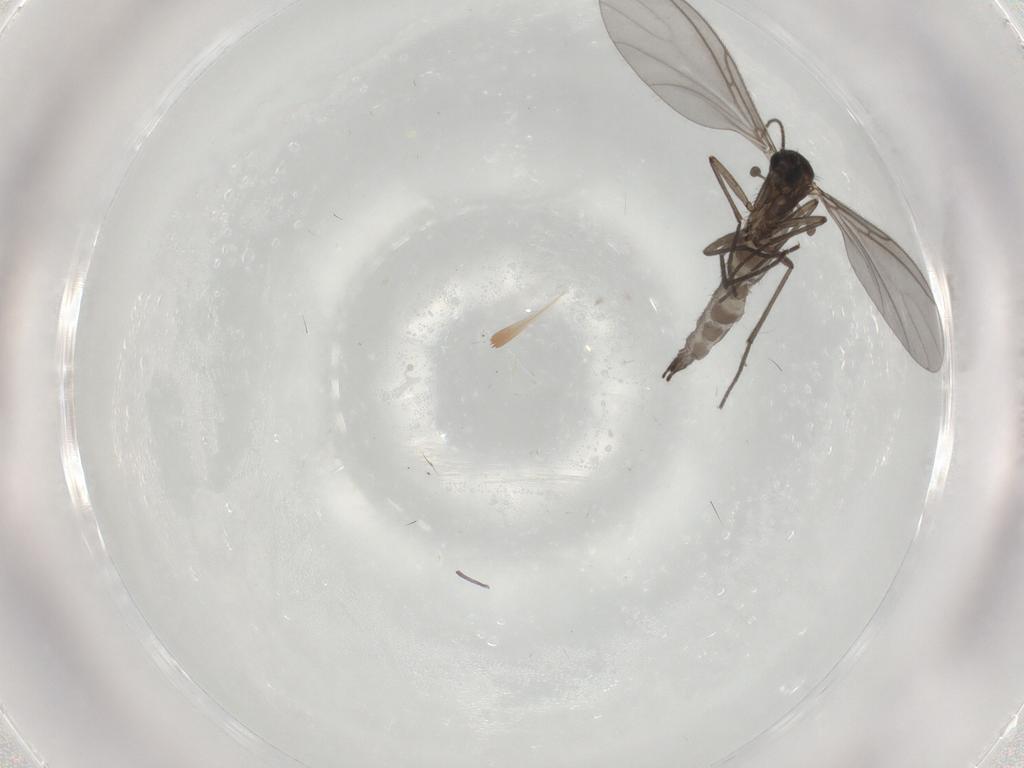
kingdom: Animalia
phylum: Arthropoda
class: Insecta
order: Diptera
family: Sciaridae
